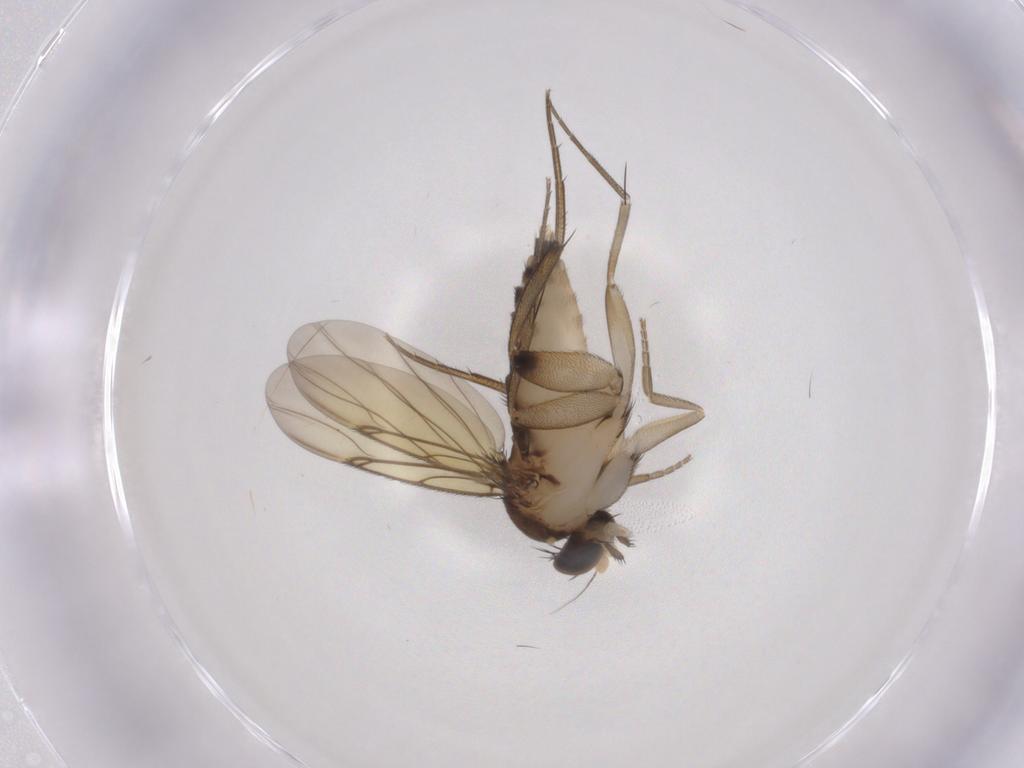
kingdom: Animalia
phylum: Arthropoda
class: Insecta
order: Diptera
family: Phoridae
